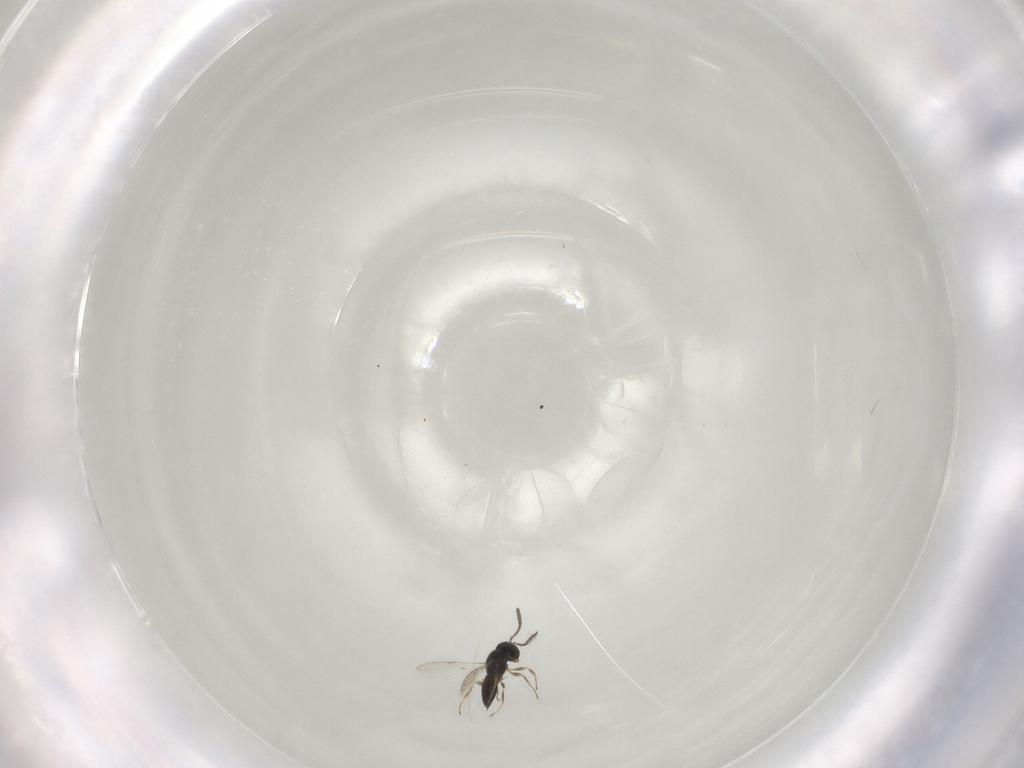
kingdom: Animalia
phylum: Arthropoda
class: Insecta
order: Hymenoptera
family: Scelionidae
